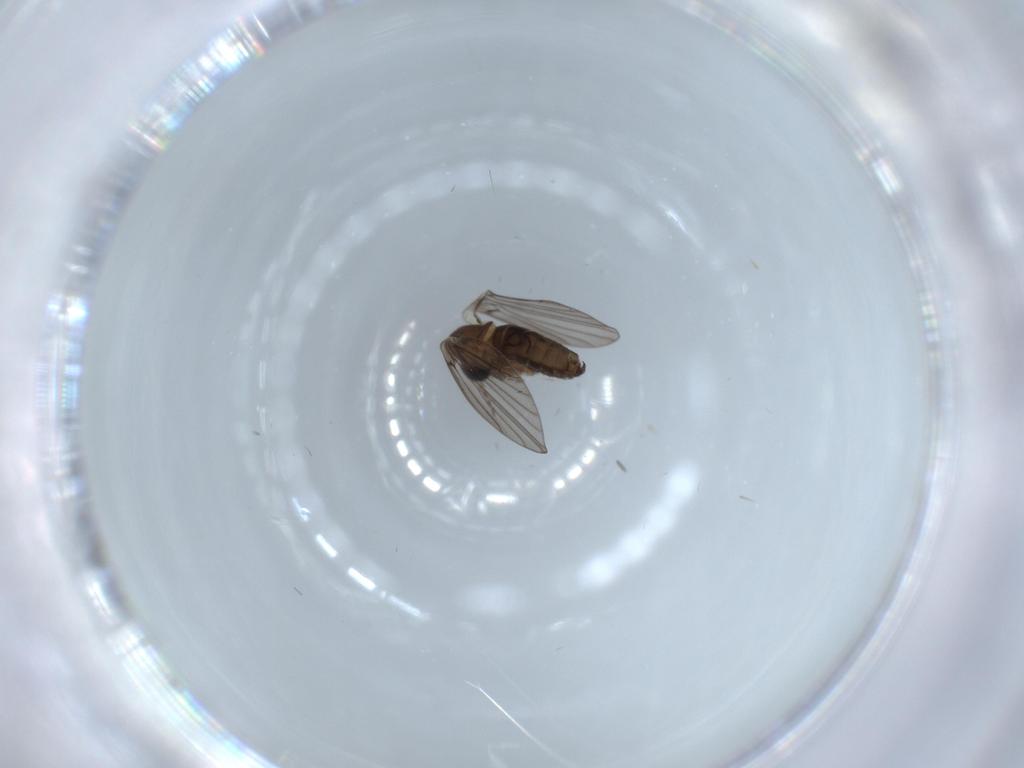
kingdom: Animalia
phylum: Arthropoda
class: Insecta
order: Diptera
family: Psychodidae
